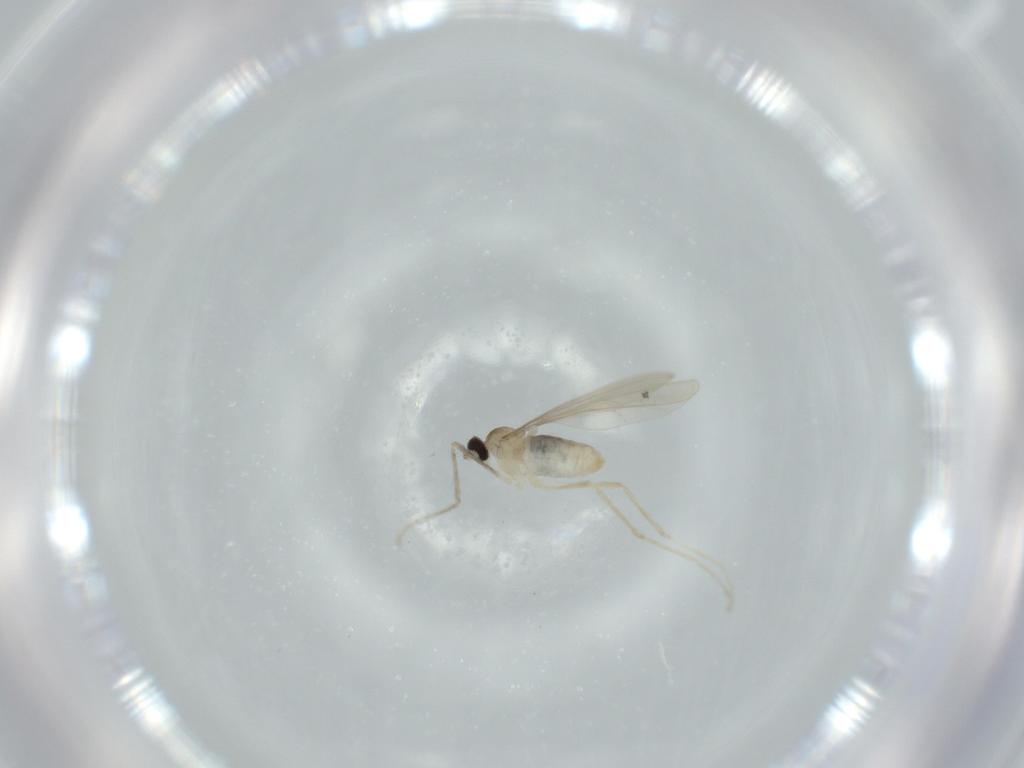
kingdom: Animalia
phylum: Arthropoda
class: Insecta
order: Diptera
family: Cecidomyiidae
